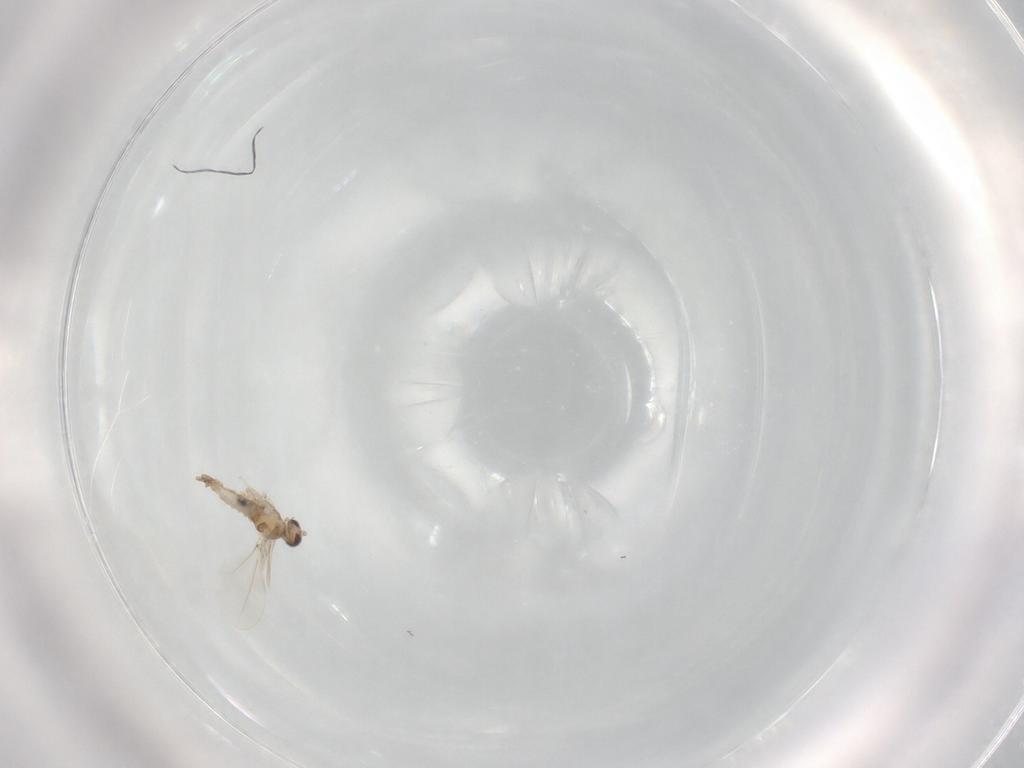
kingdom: Animalia
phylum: Arthropoda
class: Insecta
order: Diptera
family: Cecidomyiidae
